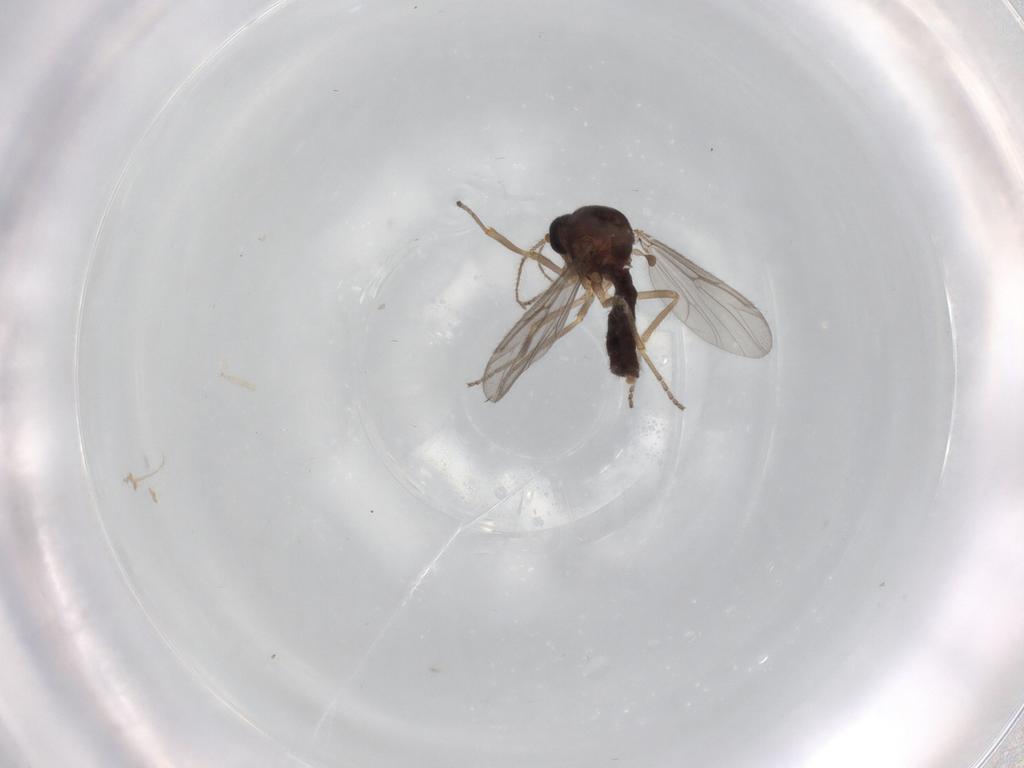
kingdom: Animalia
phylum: Arthropoda
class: Insecta
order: Diptera
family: Ceratopogonidae
